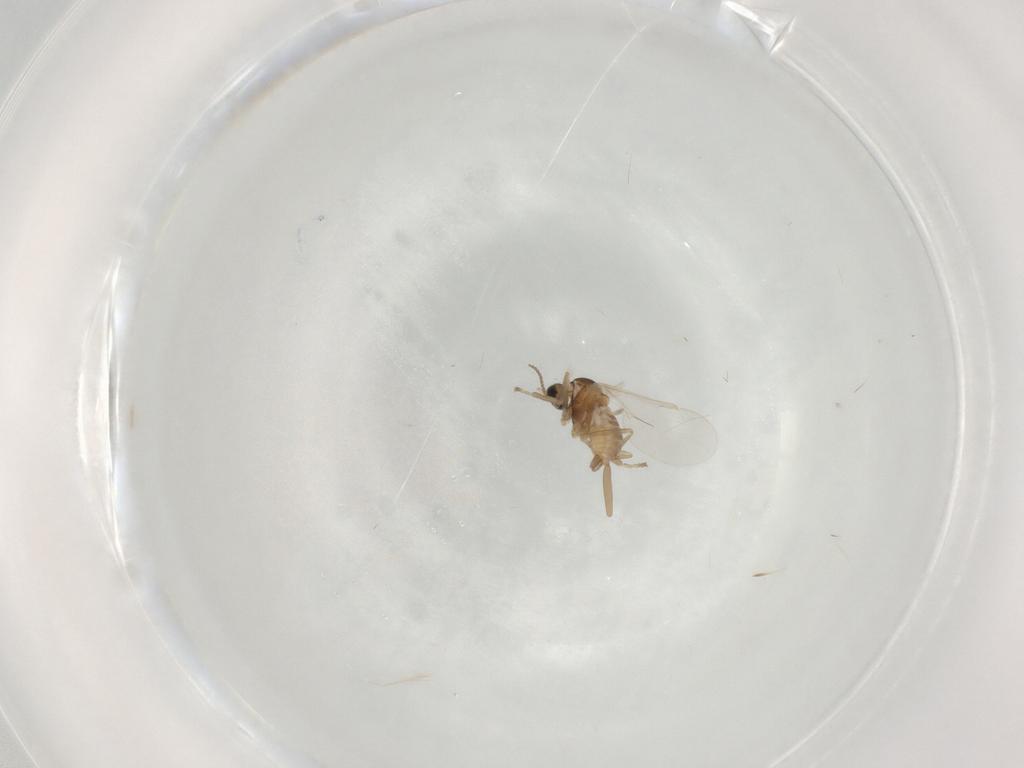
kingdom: Animalia
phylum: Arthropoda
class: Insecta
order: Diptera
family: Cecidomyiidae
